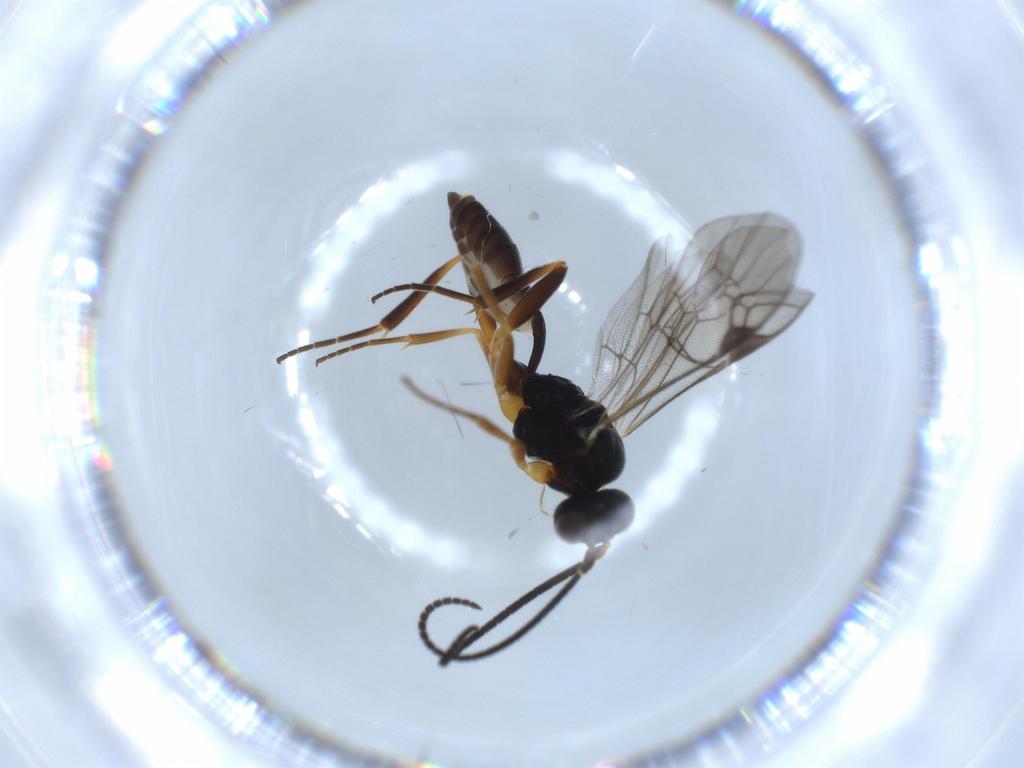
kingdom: Animalia
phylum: Arthropoda
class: Insecta
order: Hymenoptera
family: Ichneumonidae
